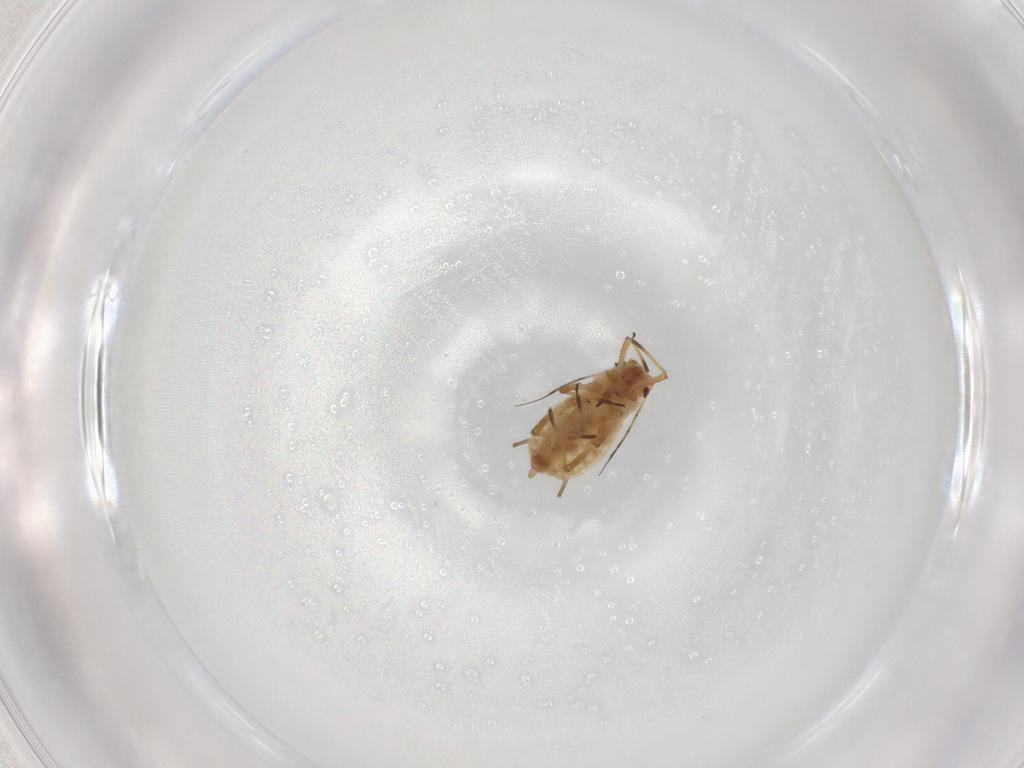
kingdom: Animalia
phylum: Arthropoda
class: Insecta
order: Hemiptera
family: Aphididae
